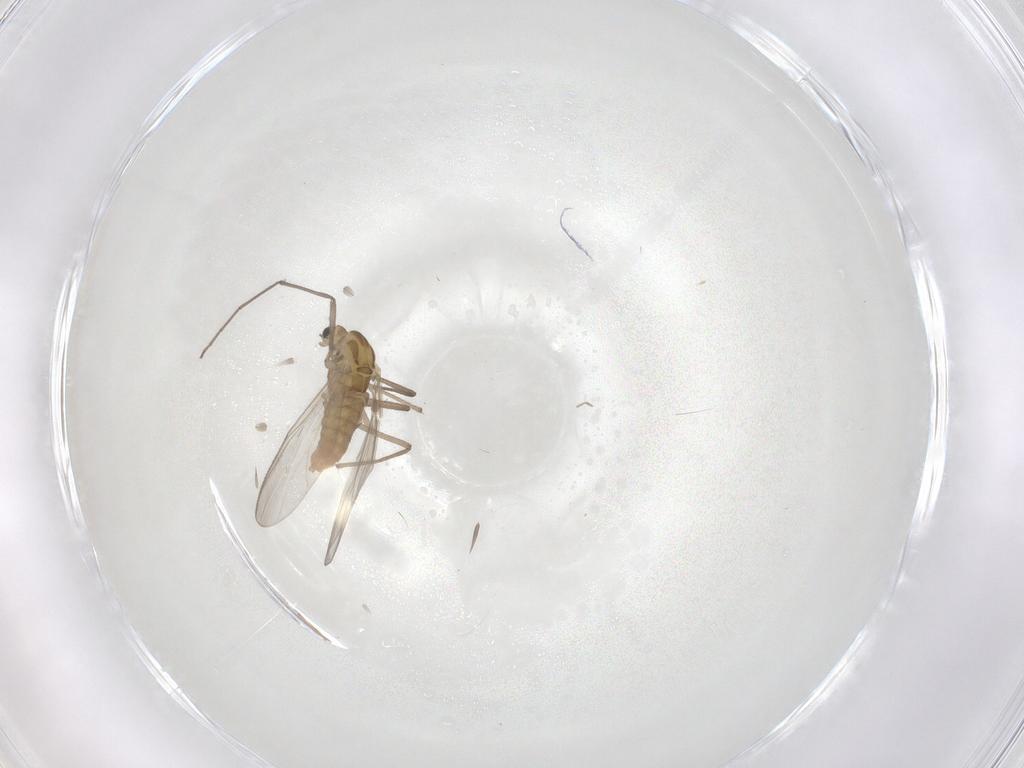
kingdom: Animalia
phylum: Arthropoda
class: Insecta
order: Diptera
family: Chironomidae
